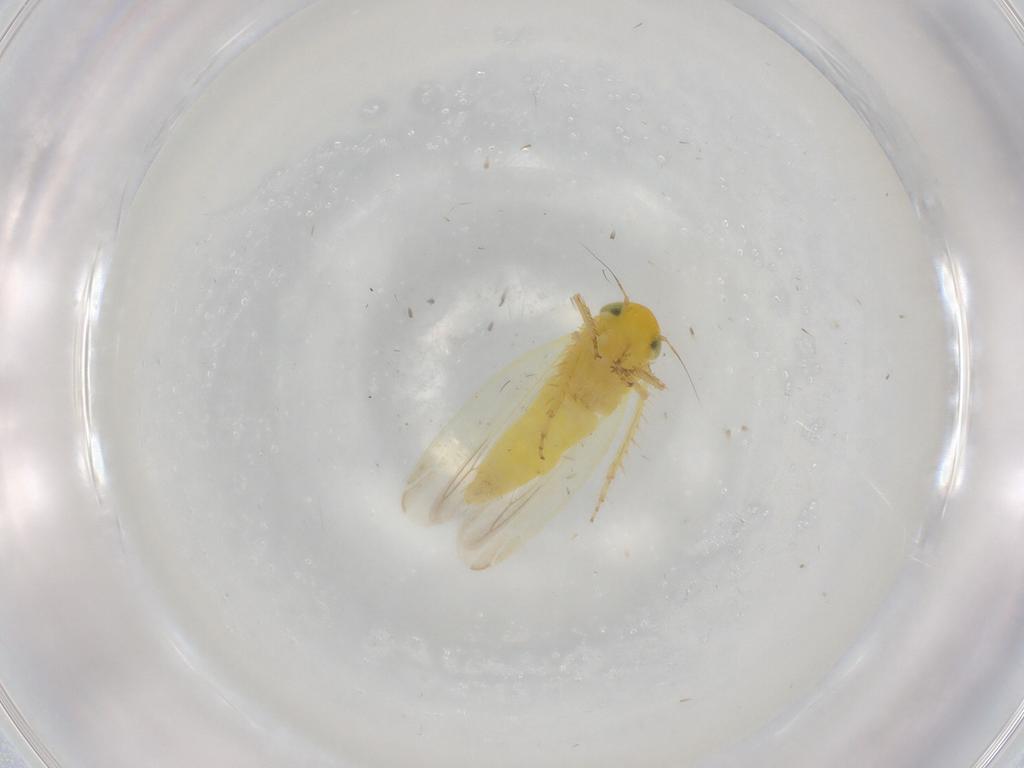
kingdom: Animalia
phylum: Arthropoda
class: Insecta
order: Hemiptera
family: Cicadellidae
